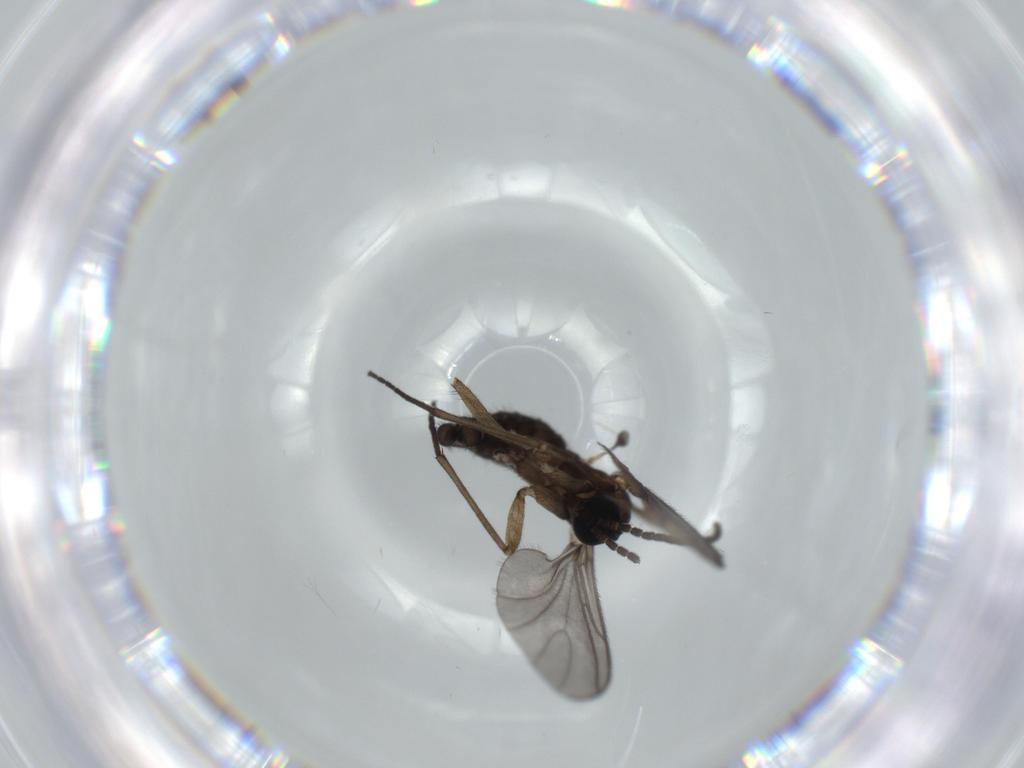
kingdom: Animalia
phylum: Arthropoda
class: Insecta
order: Diptera
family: Sciaridae
